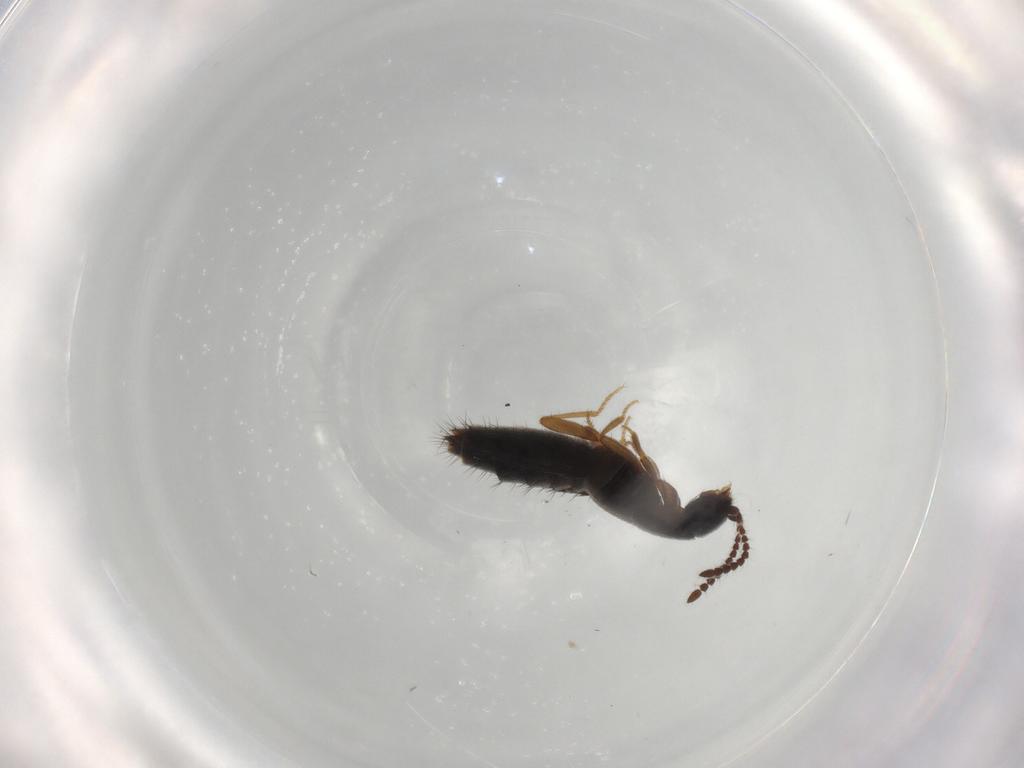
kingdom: Animalia
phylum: Arthropoda
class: Insecta
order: Coleoptera
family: Staphylinidae
